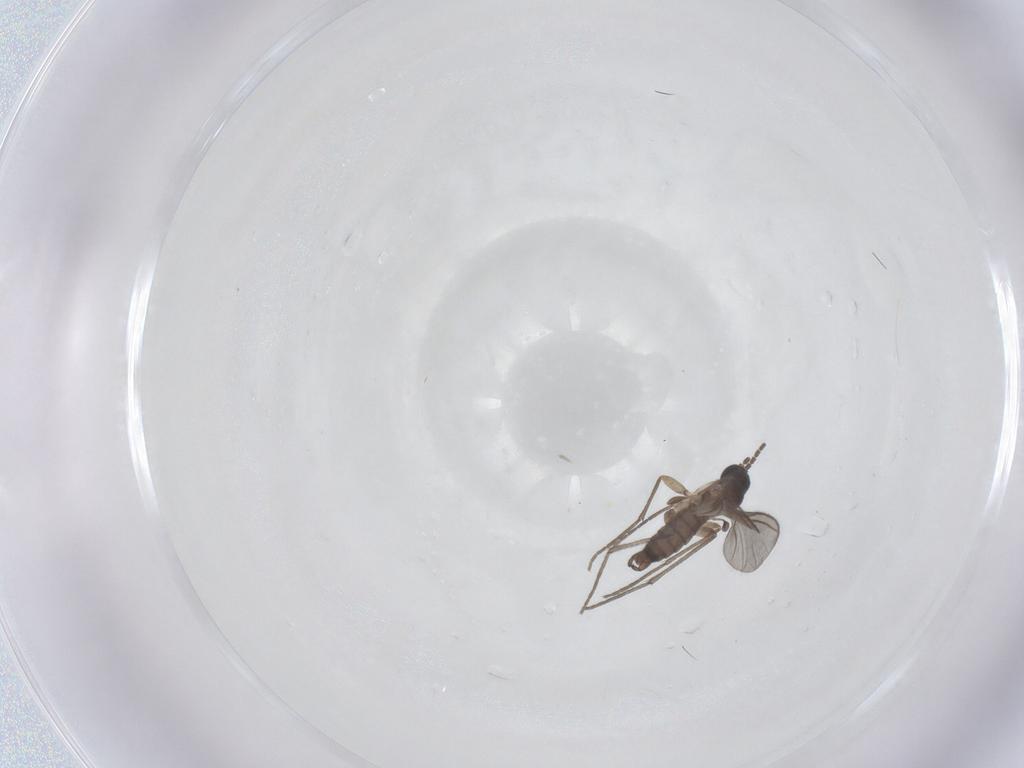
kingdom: Animalia
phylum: Arthropoda
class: Insecta
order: Diptera
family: Sciaridae
